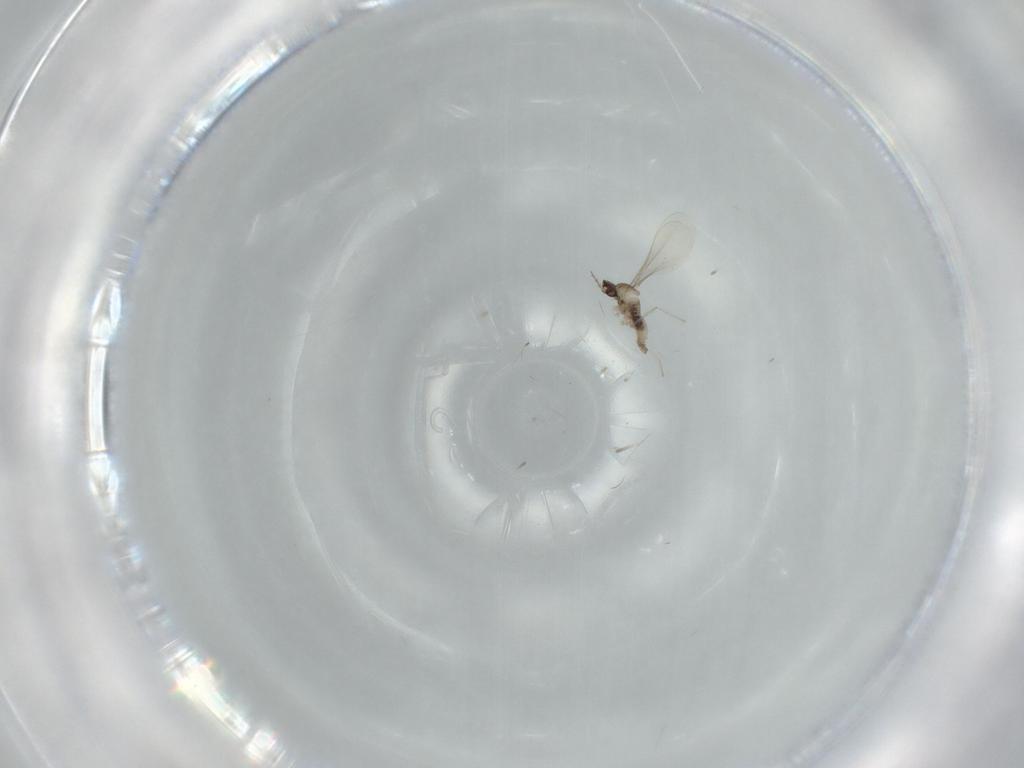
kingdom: Animalia
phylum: Arthropoda
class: Insecta
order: Diptera
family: Cecidomyiidae
